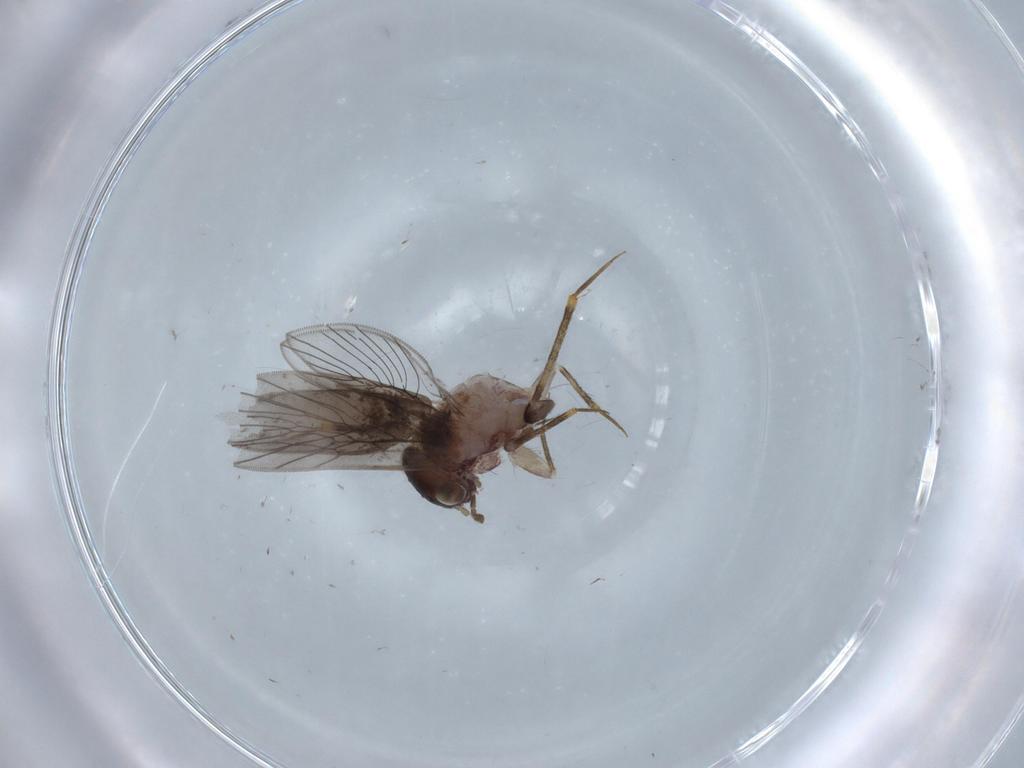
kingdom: Animalia
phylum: Arthropoda
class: Insecta
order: Psocodea
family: Lepidopsocidae
